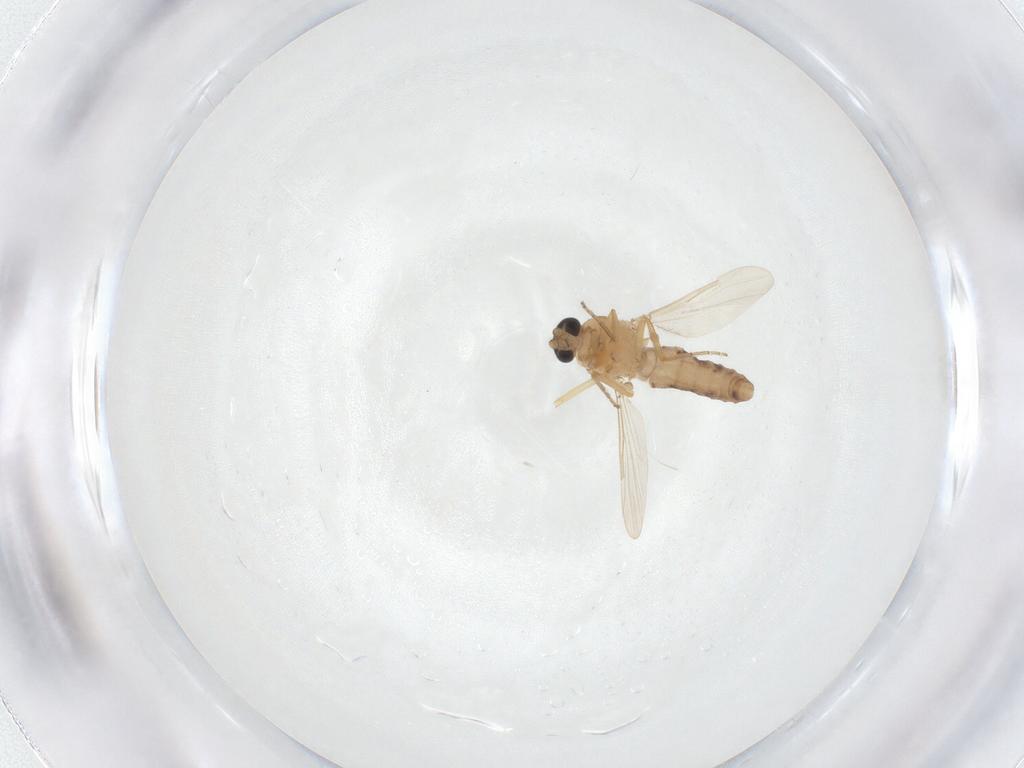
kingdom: Animalia
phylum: Arthropoda
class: Insecta
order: Diptera
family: Ceratopogonidae
